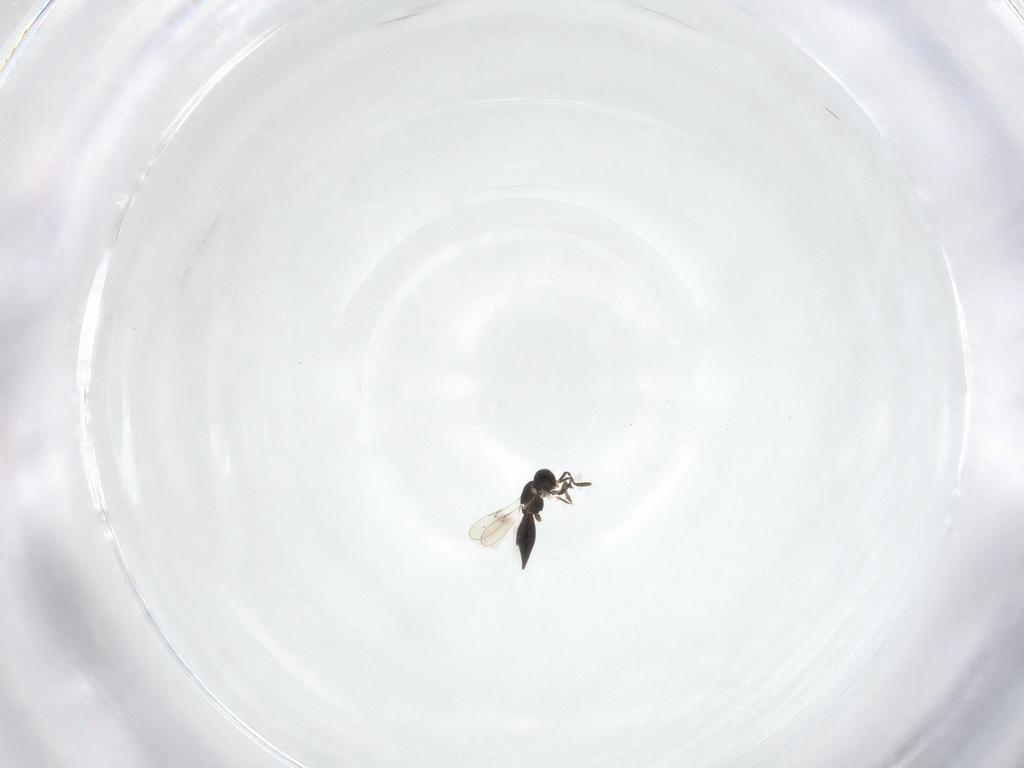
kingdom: Animalia
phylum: Arthropoda
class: Insecta
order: Hymenoptera
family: Scelionidae
